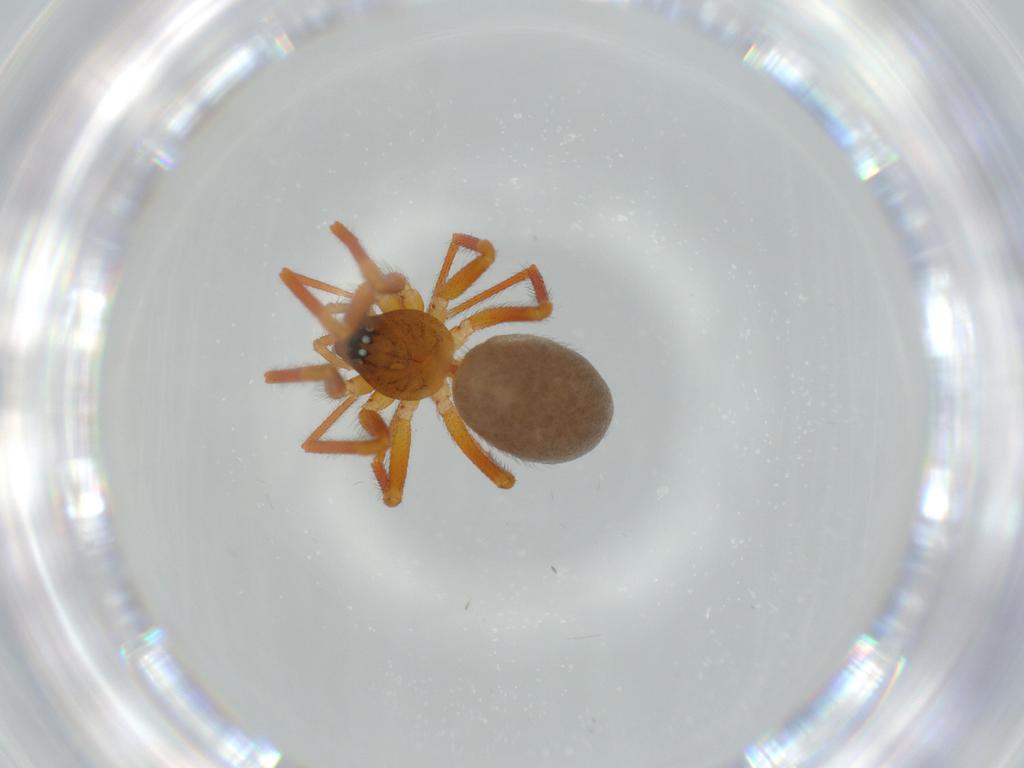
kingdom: Animalia
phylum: Arthropoda
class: Arachnida
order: Araneae
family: Linyphiidae
